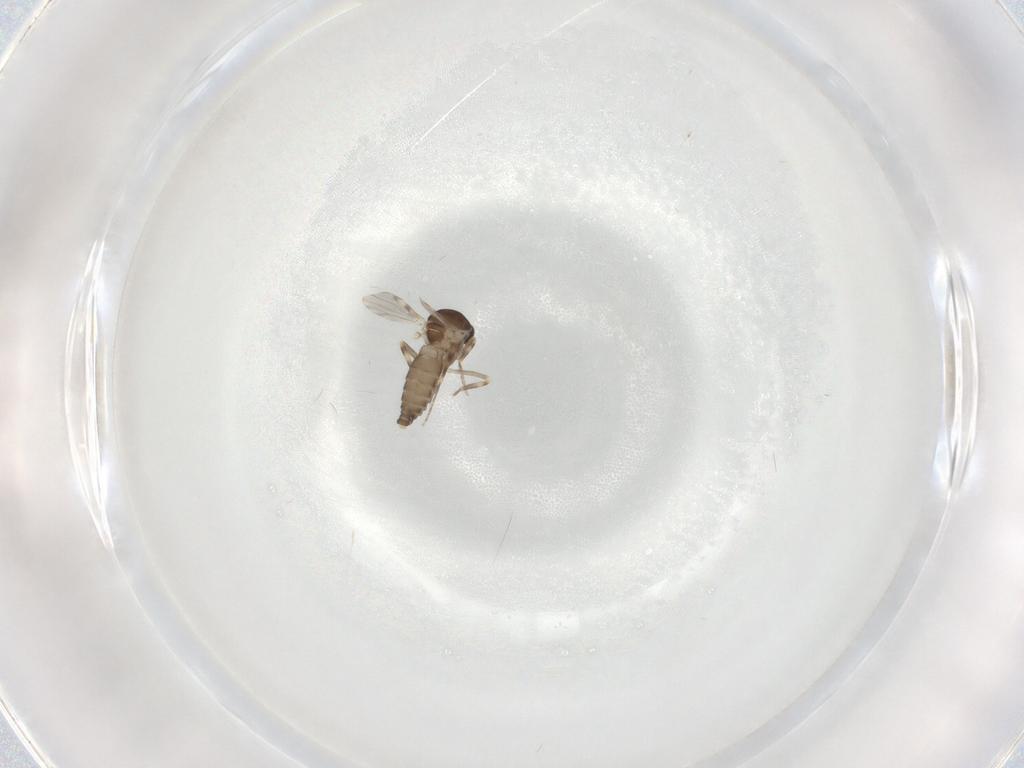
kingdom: Animalia
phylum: Arthropoda
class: Insecta
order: Diptera
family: Ceratopogonidae
